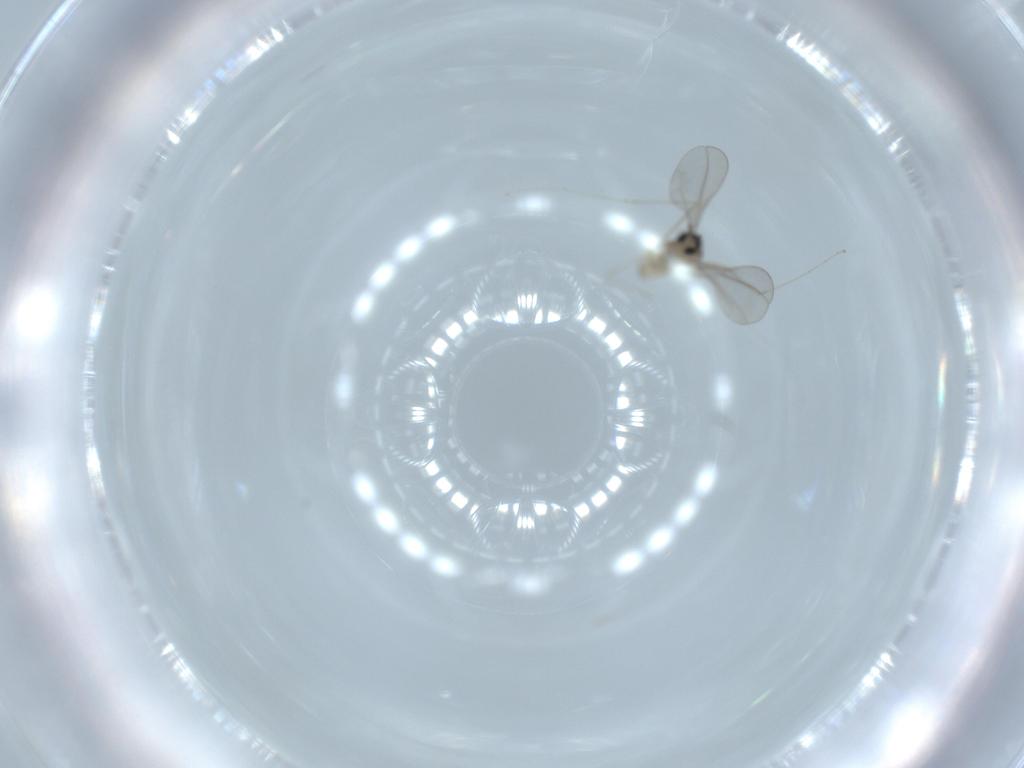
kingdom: Animalia
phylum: Arthropoda
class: Insecta
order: Diptera
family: Cecidomyiidae
